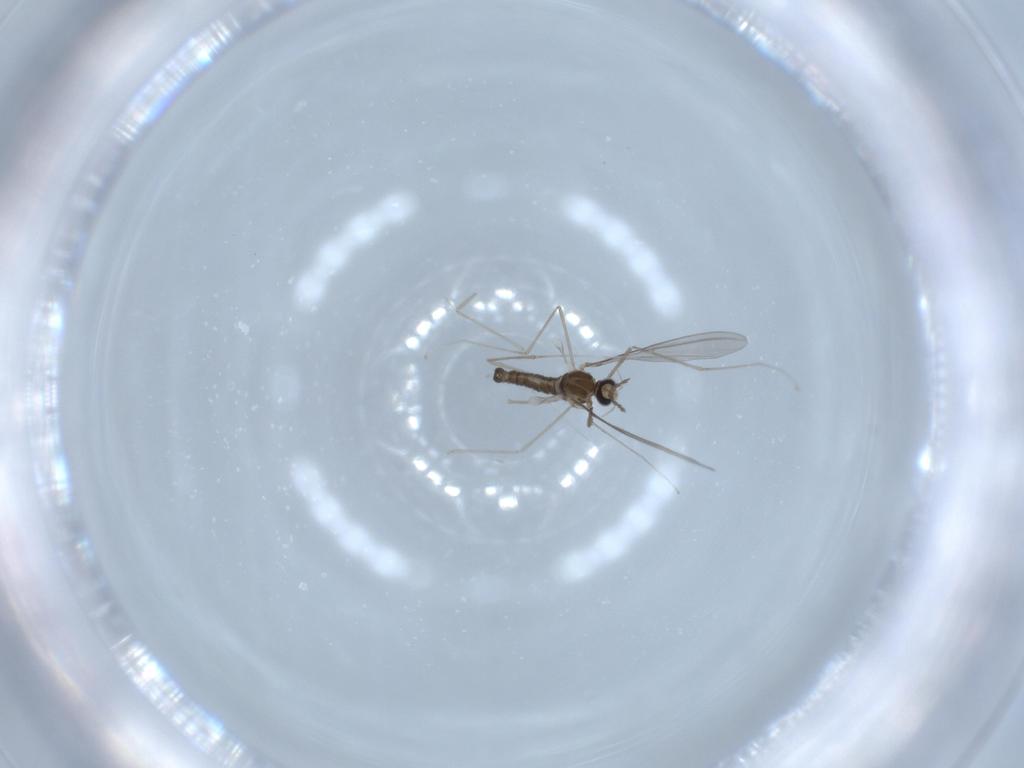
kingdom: Animalia
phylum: Arthropoda
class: Insecta
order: Diptera
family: Cecidomyiidae
